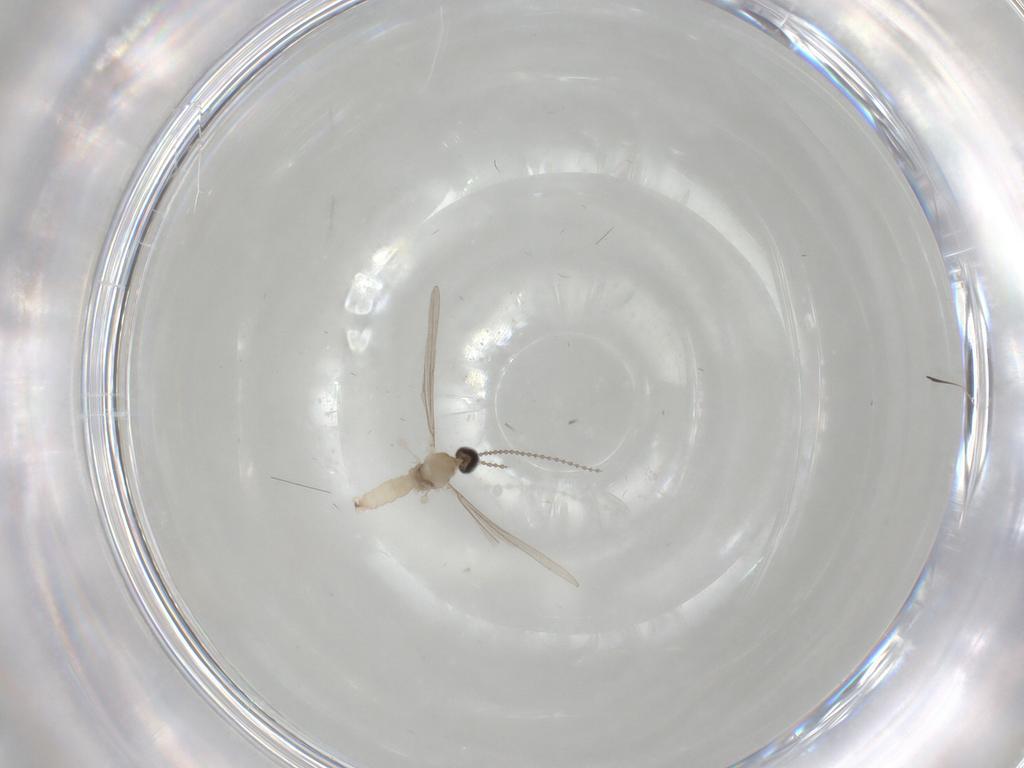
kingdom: Animalia
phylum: Arthropoda
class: Insecta
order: Diptera
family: Cecidomyiidae
